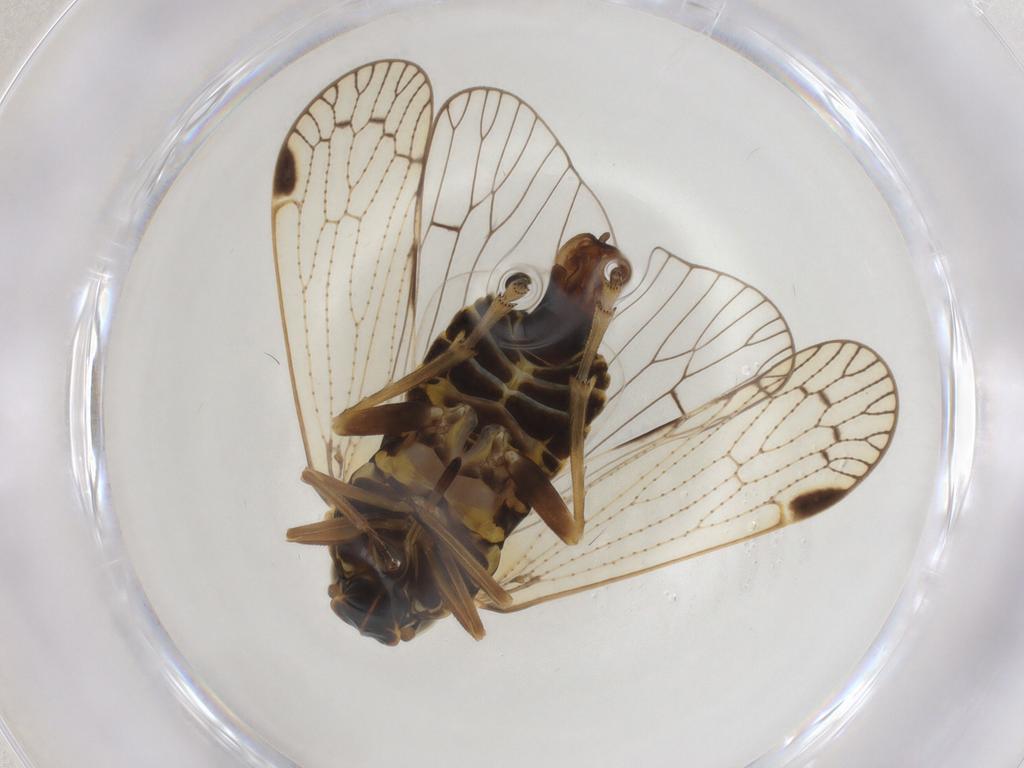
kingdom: Animalia
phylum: Arthropoda
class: Insecta
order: Hemiptera
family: Cixiidae
